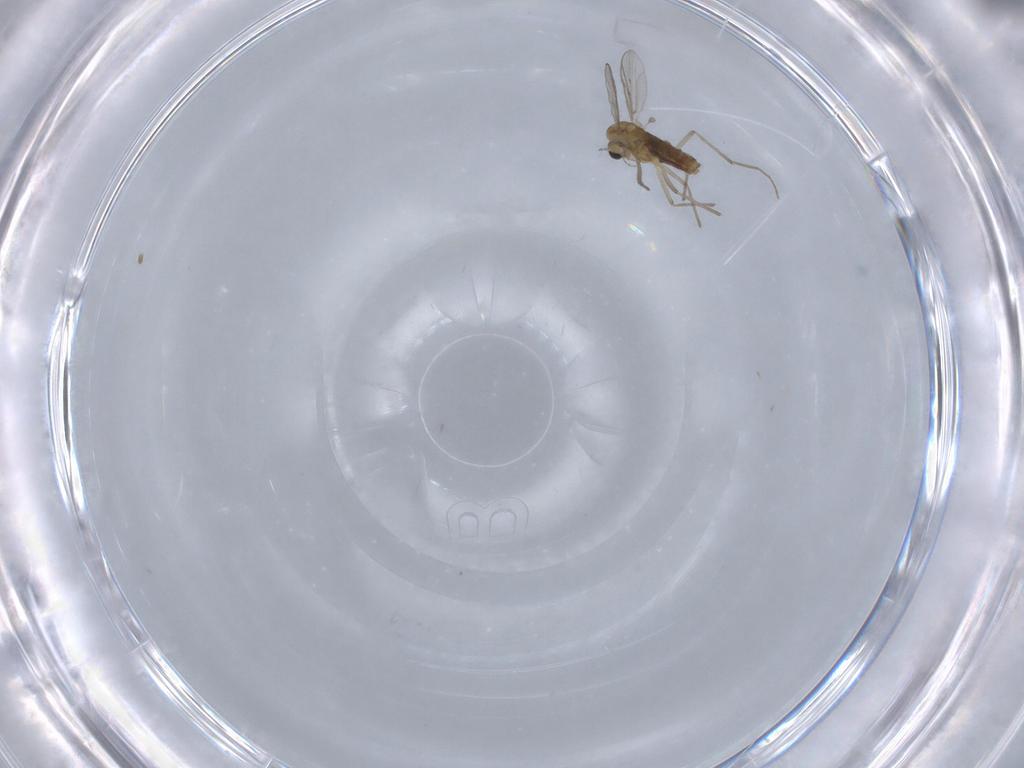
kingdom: Animalia
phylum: Arthropoda
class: Insecta
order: Diptera
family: Chironomidae
